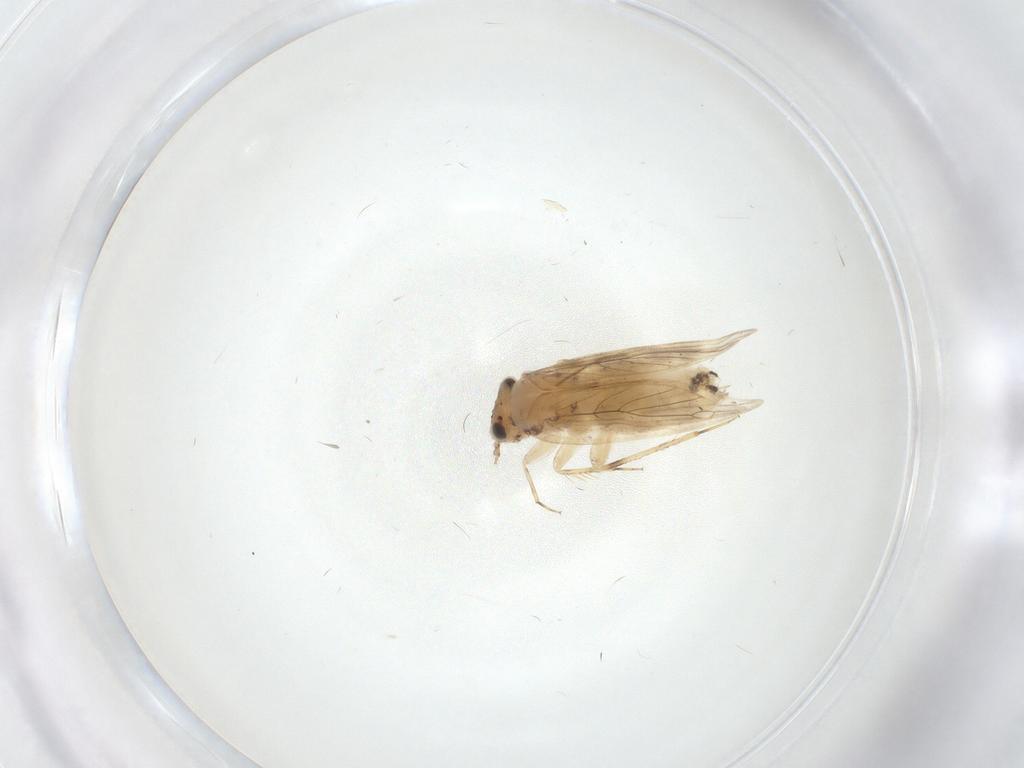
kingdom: Animalia
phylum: Arthropoda
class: Insecta
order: Psocodea
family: Lepidopsocidae
